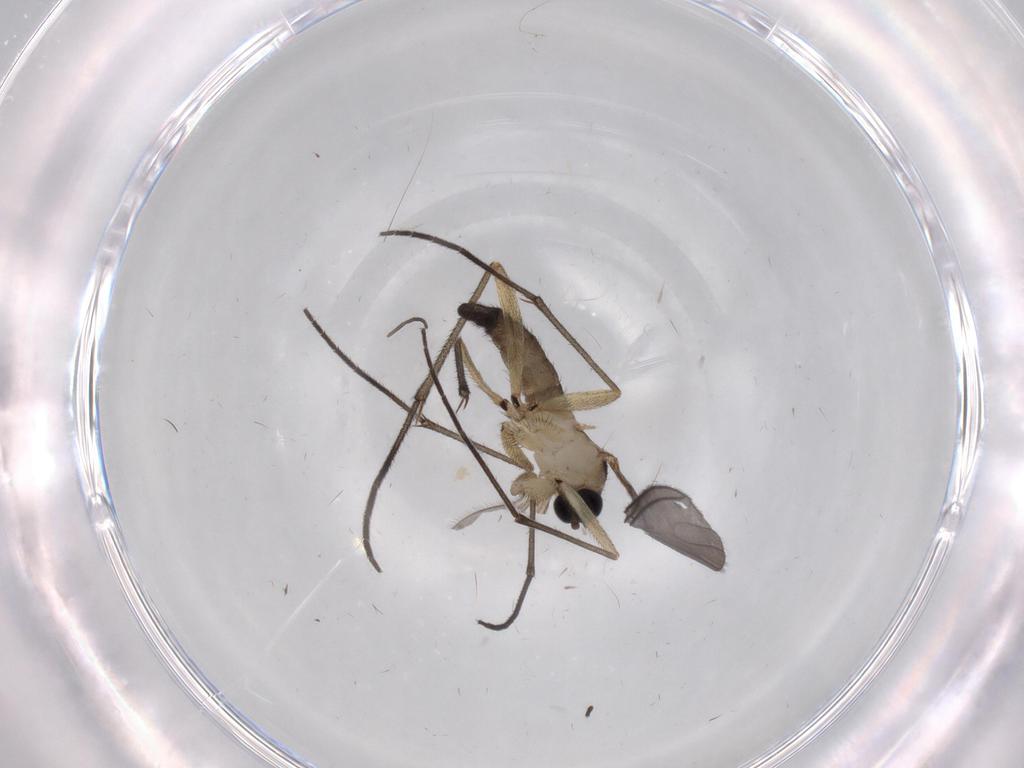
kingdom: Animalia
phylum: Arthropoda
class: Insecta
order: Diptera
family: Sciaridae
